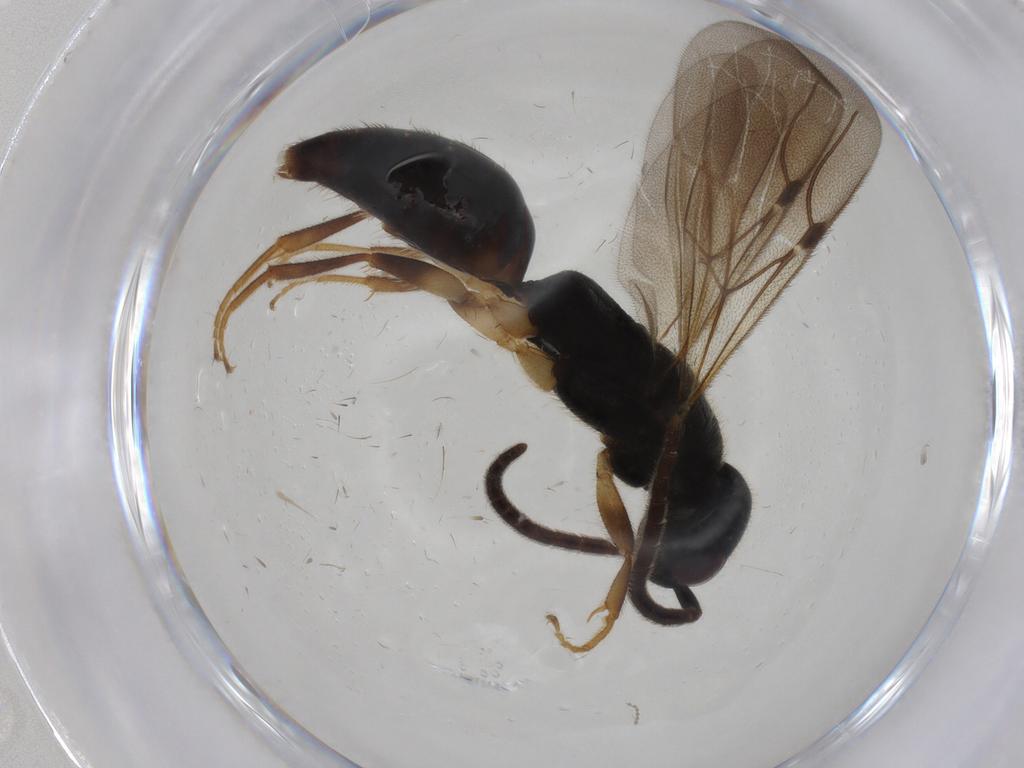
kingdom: Animalia
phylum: Arthropoda
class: Insecta
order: Hymenoptera
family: Bethylidae
